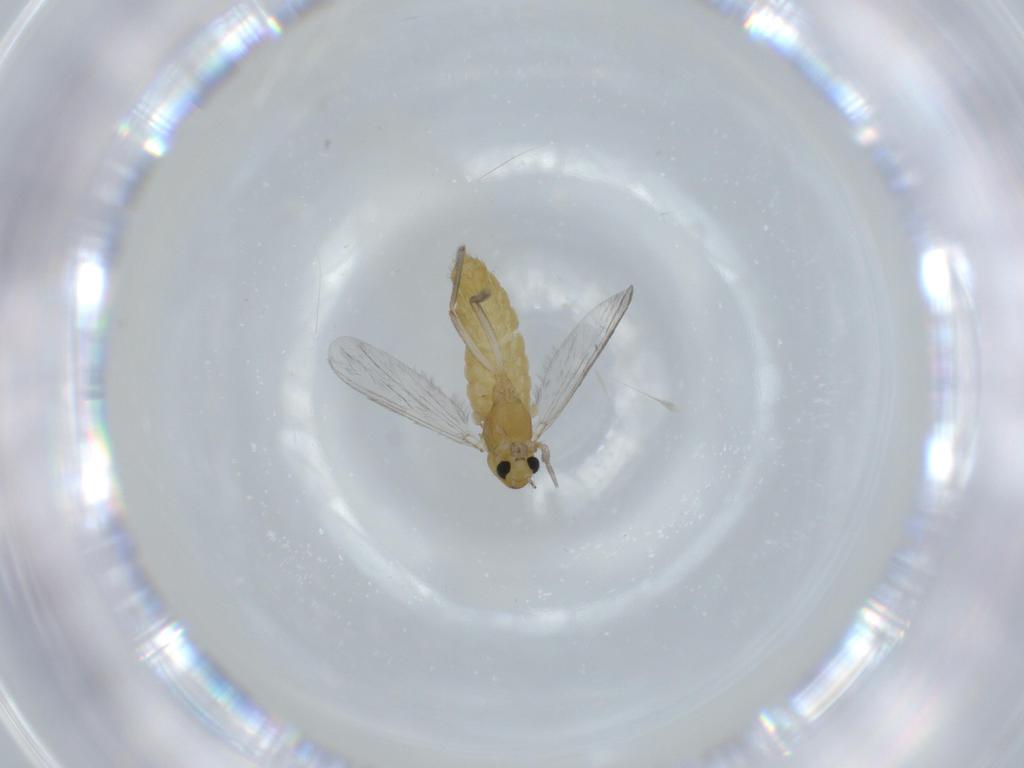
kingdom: Animalia
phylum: Arthropoda
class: Insecta
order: Diptera
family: Chironomidae
